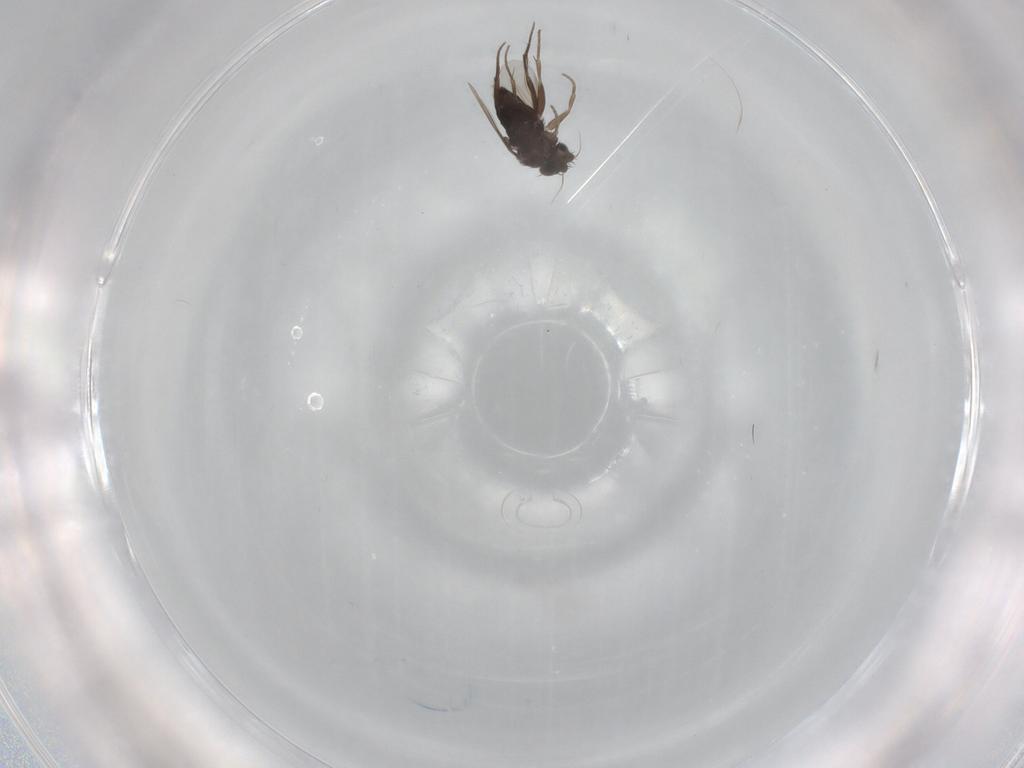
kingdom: Animalia
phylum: Arthropoda
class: Insecta
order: Diptera
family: Phoridae
